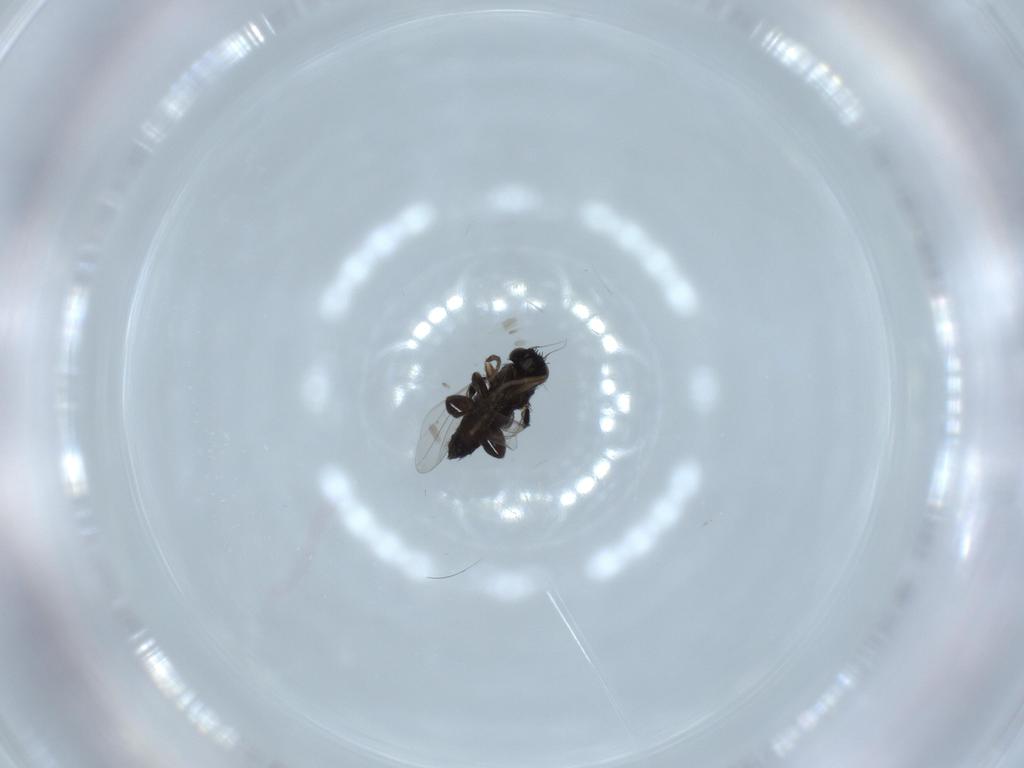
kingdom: Animalia
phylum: Arthropoda
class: Insecta
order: Diptera
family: Phoridae
